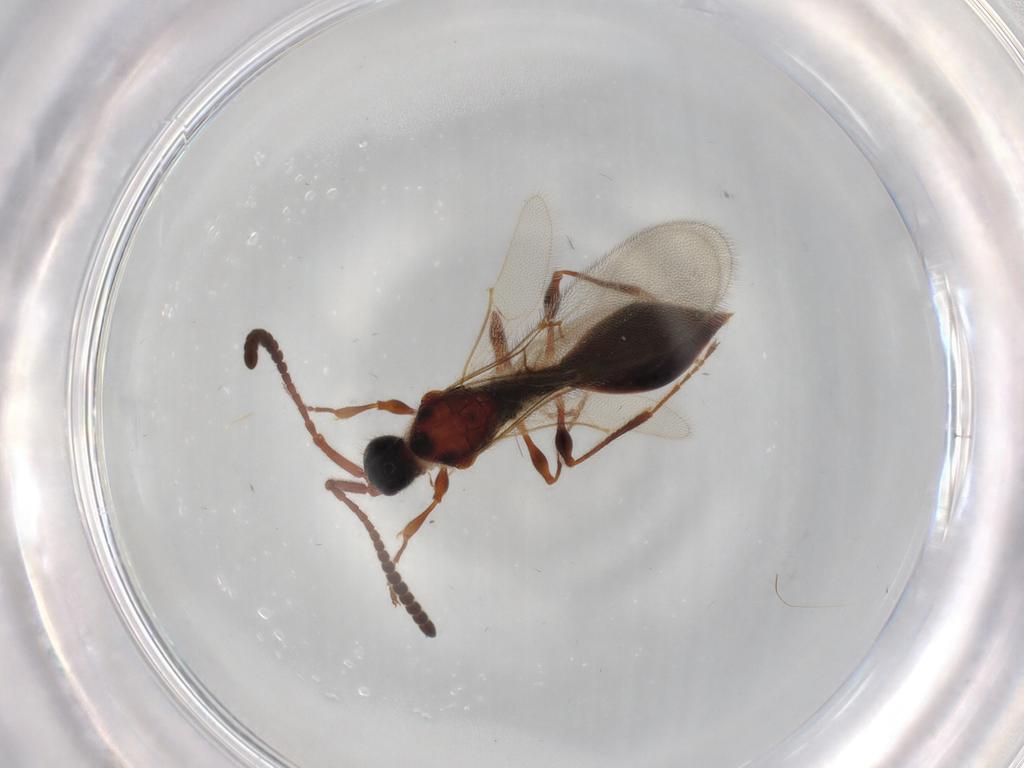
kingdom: Animalia
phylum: Arthropoda
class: Insecta
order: Hymenoptera
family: Diapriidae
